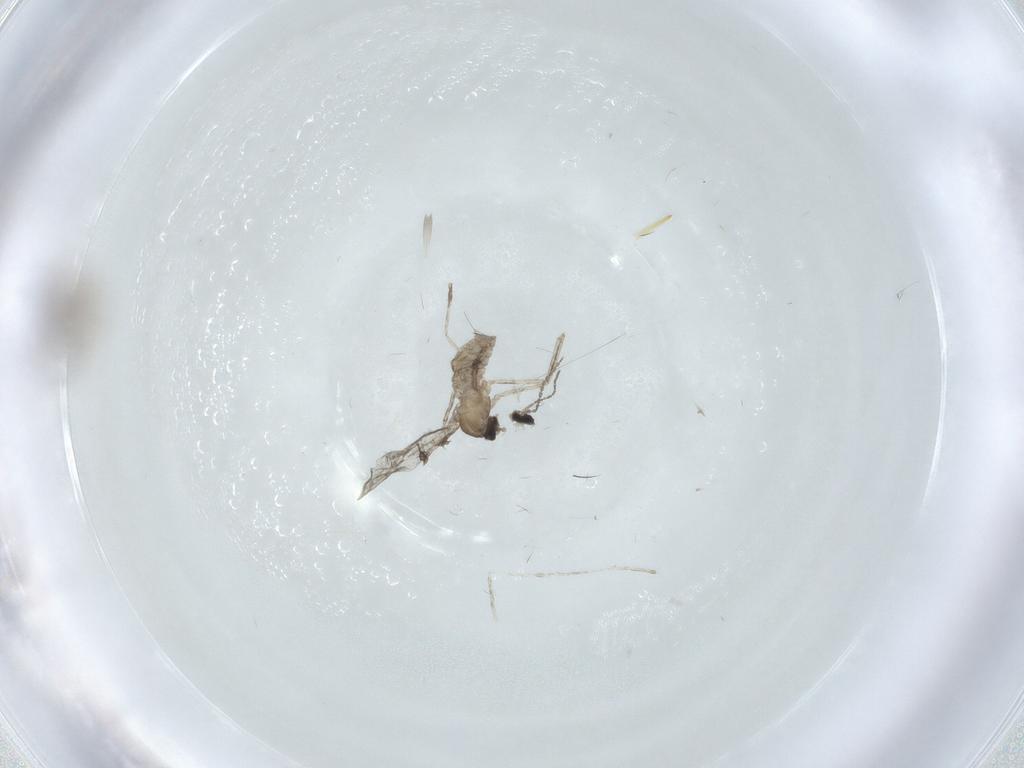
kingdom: Animalia
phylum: Arthropoda
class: Insecta
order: Diptera
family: Cecidomyiidae
